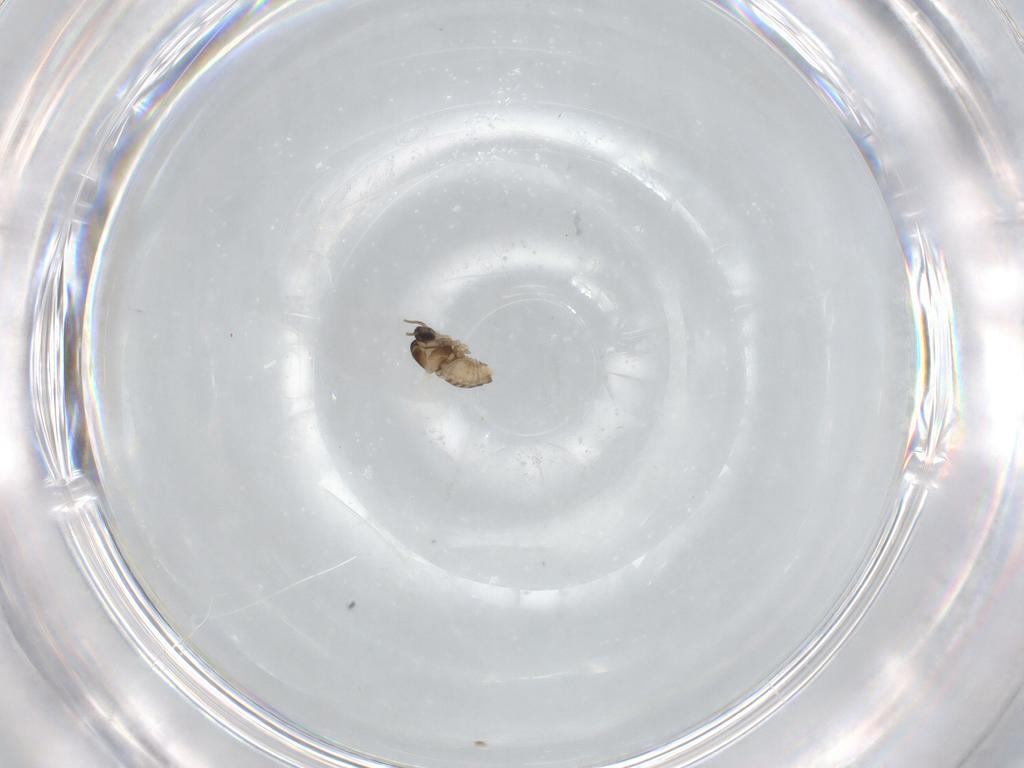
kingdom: Animalia
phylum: Arthropoda
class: Insecta
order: Diptera
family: Cecidomyiidae
